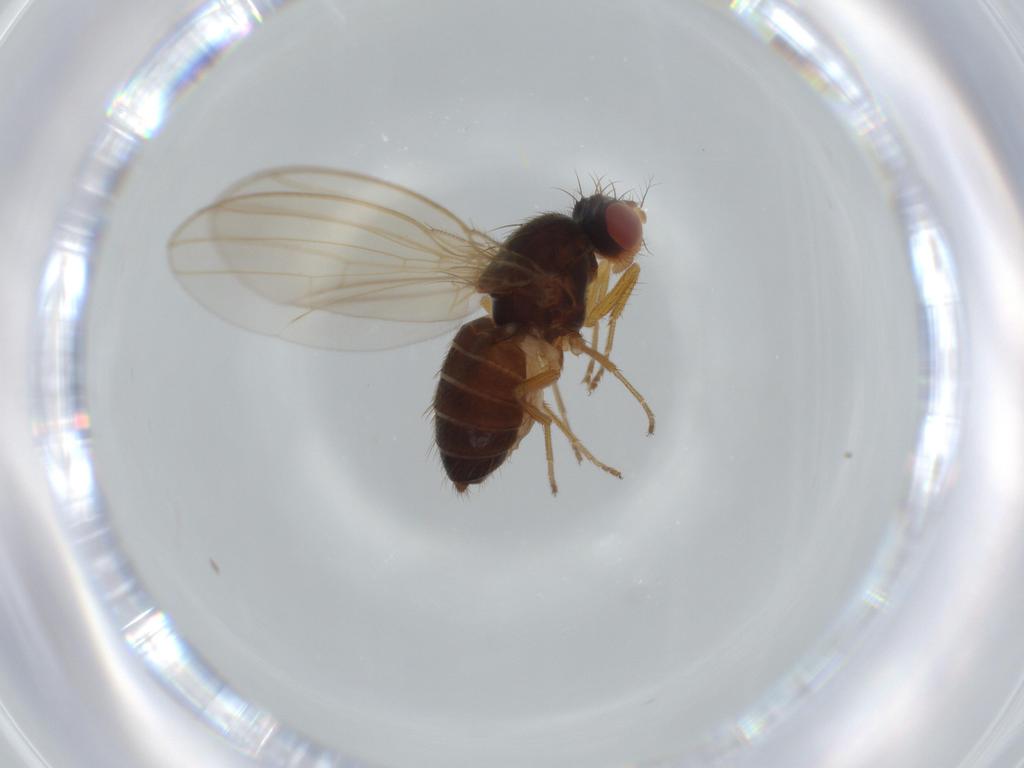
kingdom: Animalia
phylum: Arthropoda
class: Insecta
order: Diptera
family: Drosophilidae
